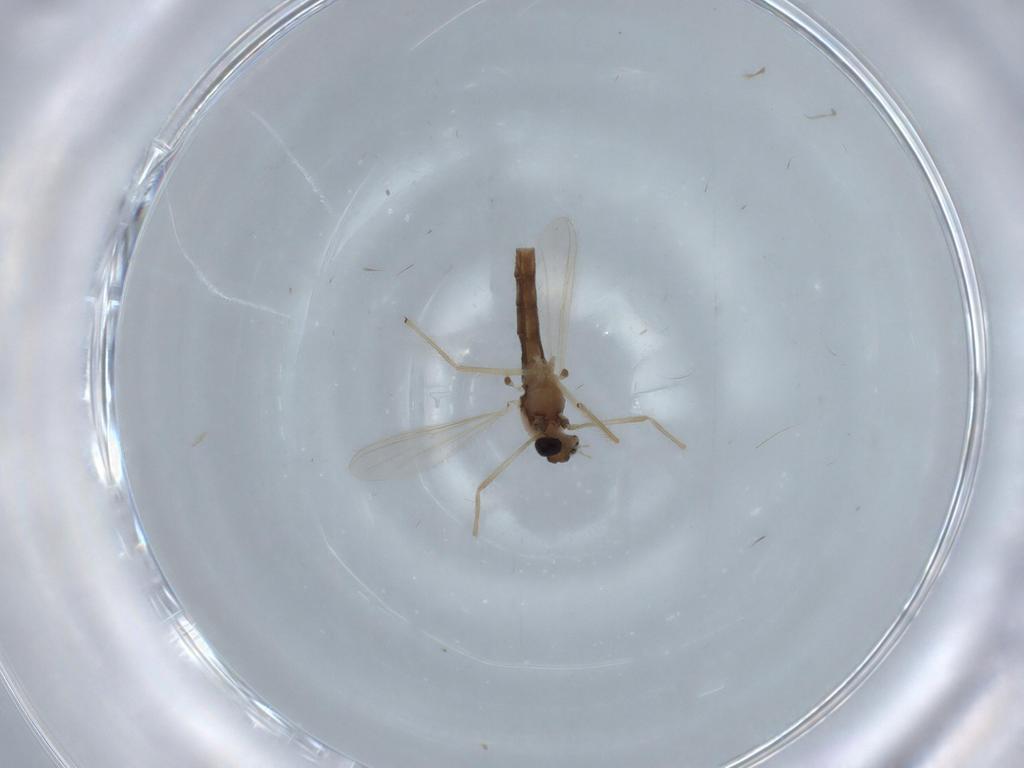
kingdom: Animalia
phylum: Arthropoda
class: Insecta
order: Diptera
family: Chironomidae
